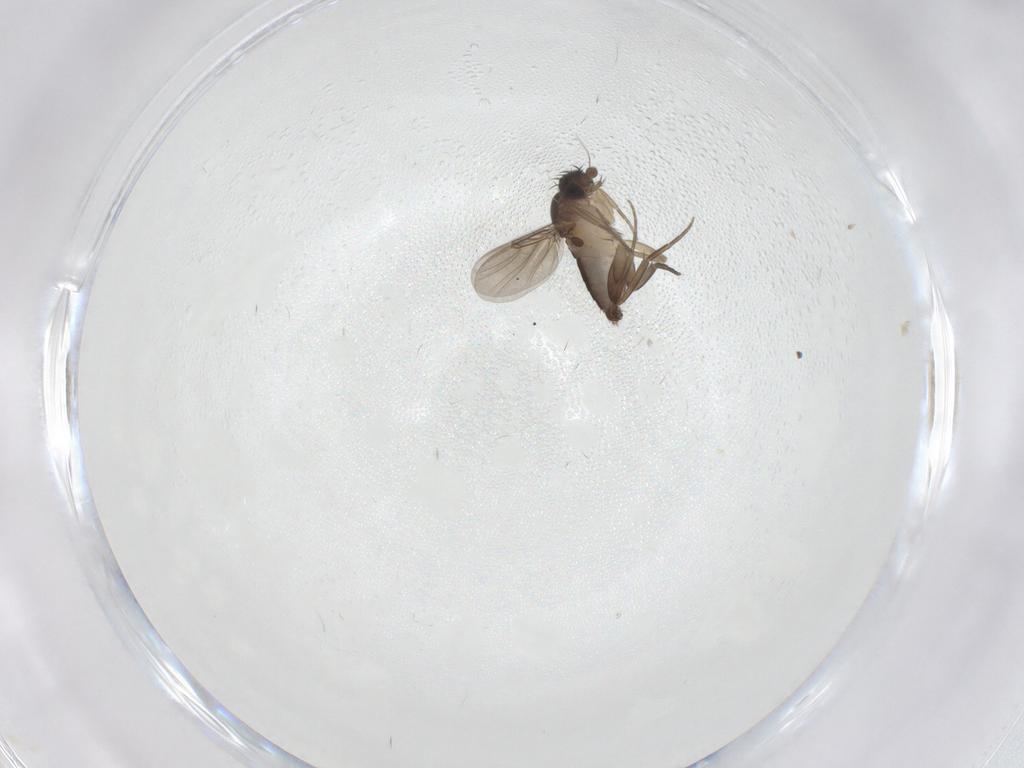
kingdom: Animalia
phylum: Arthropoda
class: Insecta
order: Diptera
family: Phoridae
